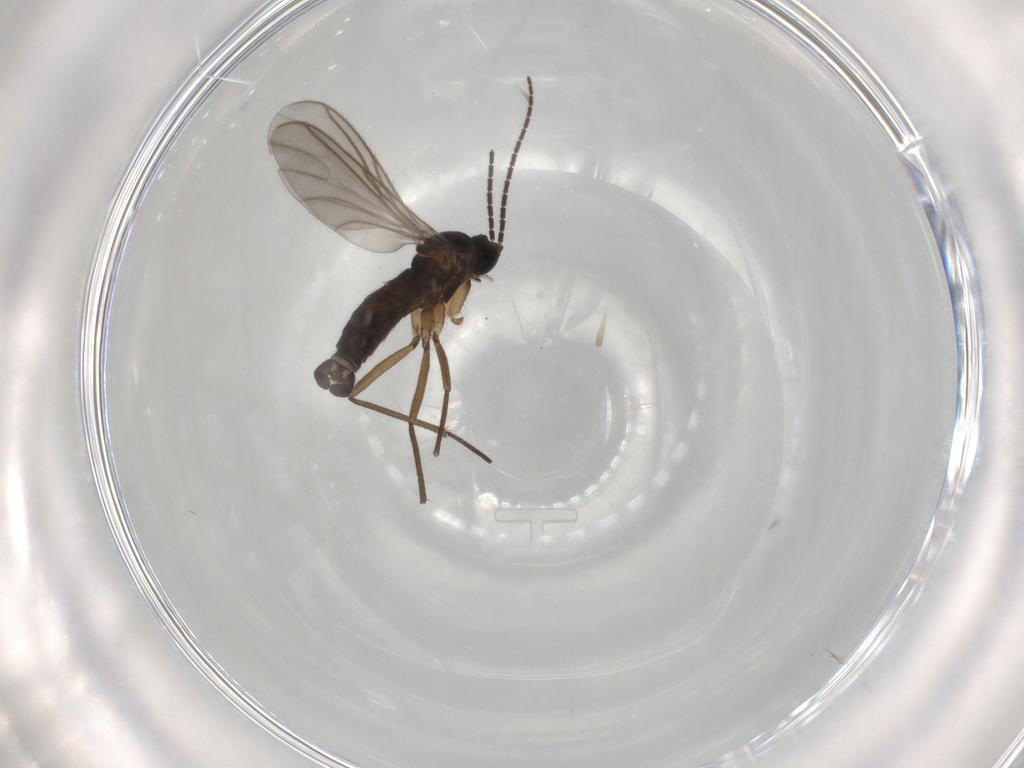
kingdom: Animalia
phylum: Arthropoda
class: Insecta
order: Diptera
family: Sciaridae
